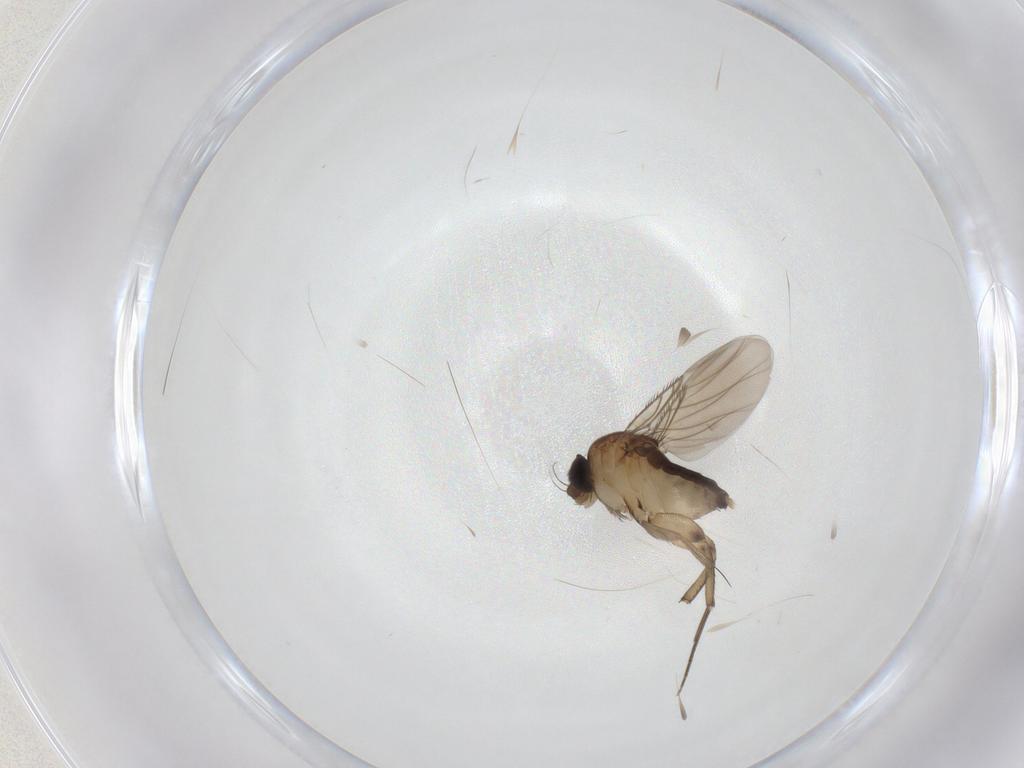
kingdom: Animalia
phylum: Arthropoda
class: Insecta
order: Diptera
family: Phoridae
